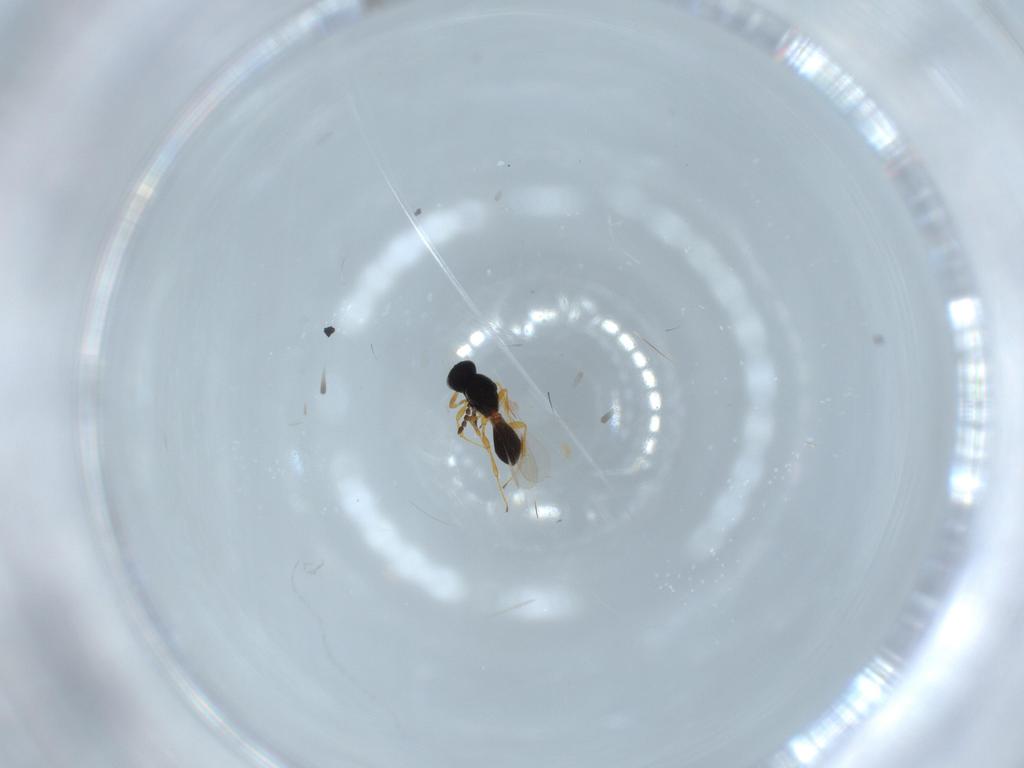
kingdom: Animalia
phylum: Arthropoda
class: Insecta
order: Hymenoptera
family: Platygastridae
